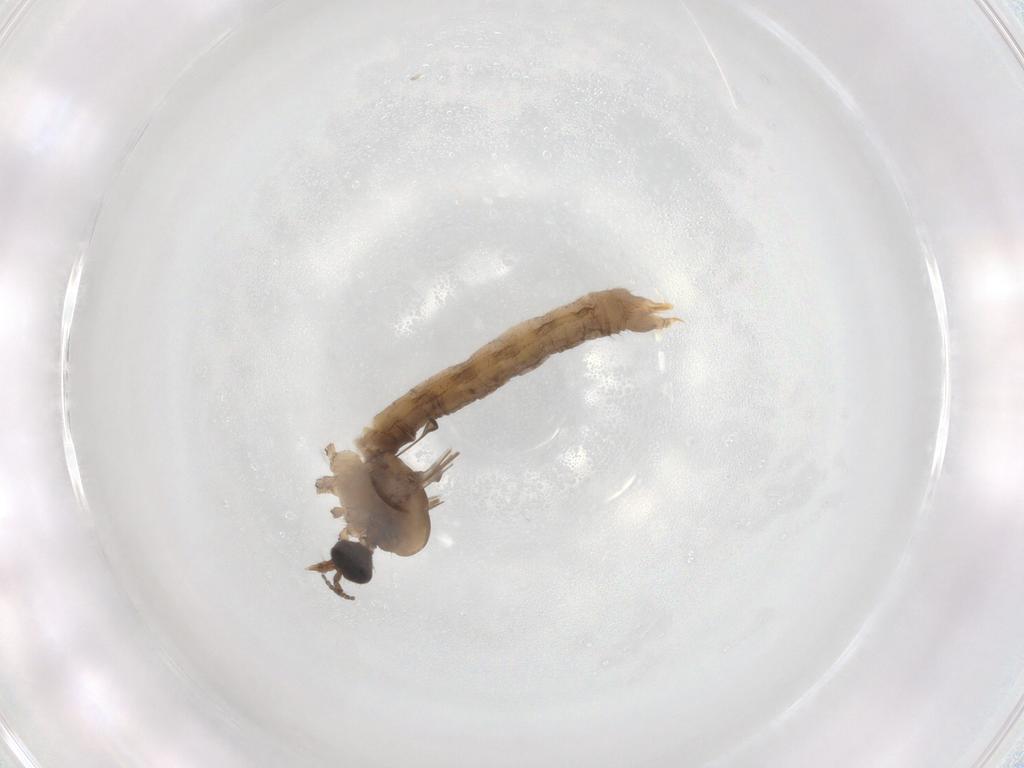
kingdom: Animalia
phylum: Arthropoda
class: Insecta
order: Diptera
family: Limoniidae
